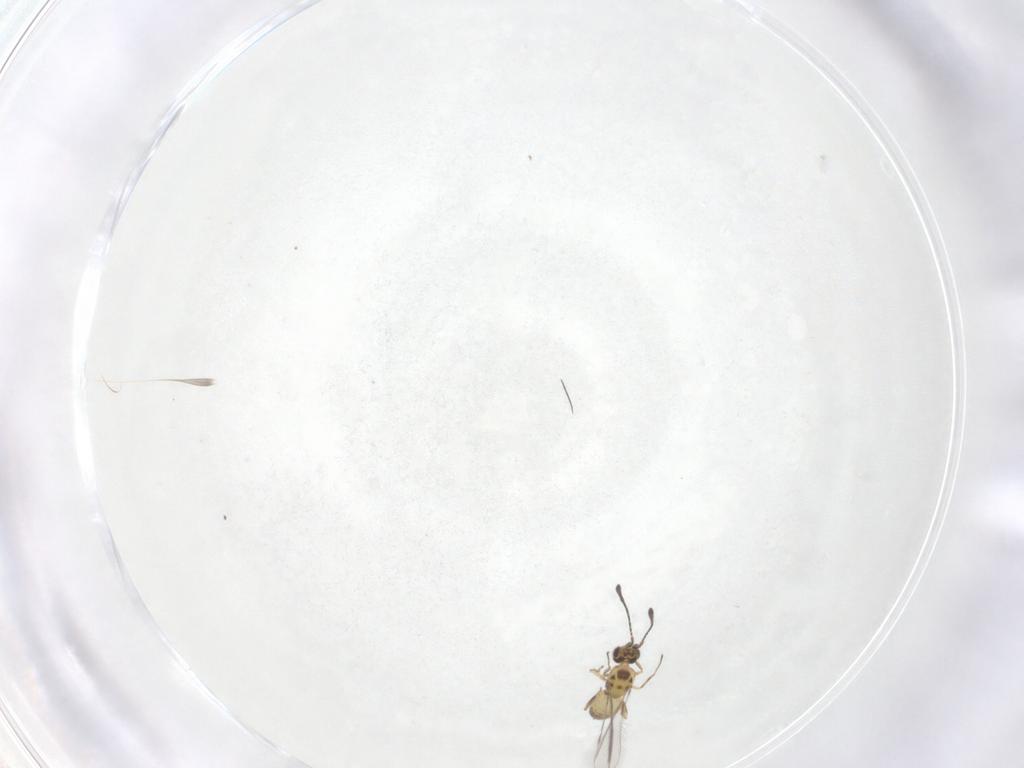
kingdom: Animalia
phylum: Arthropoda
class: Insecta
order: Hymenoptera
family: Mymaridae
